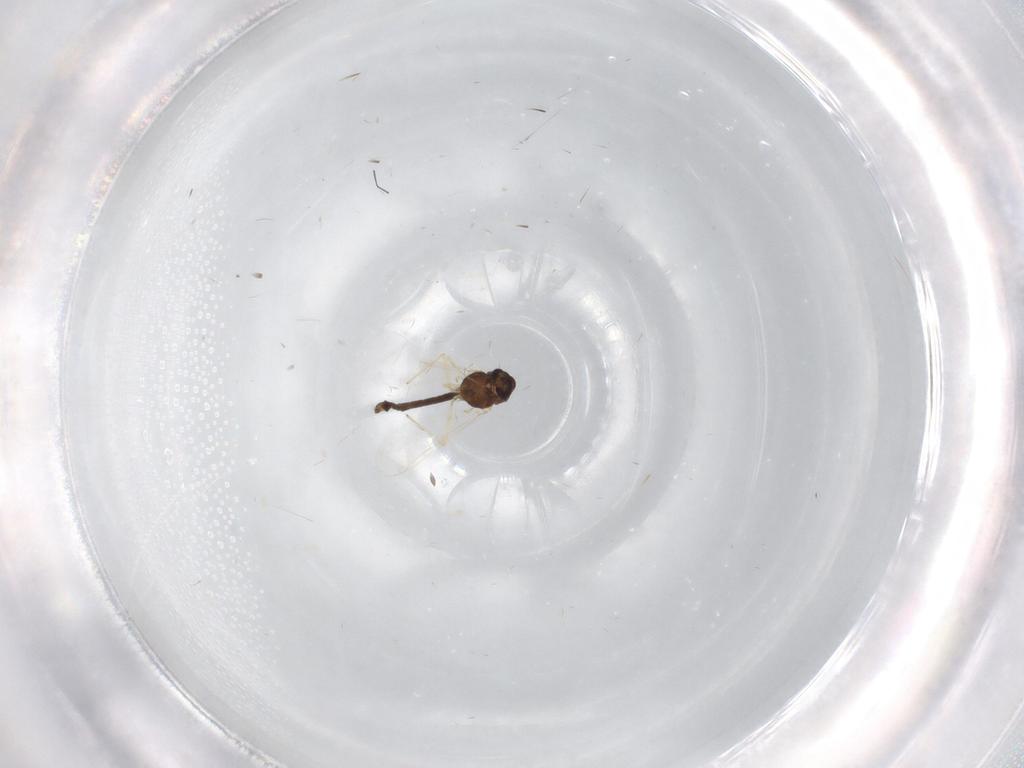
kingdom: Animalia
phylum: Arthropoda
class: Insecta
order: Diptera
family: Chironomidae
